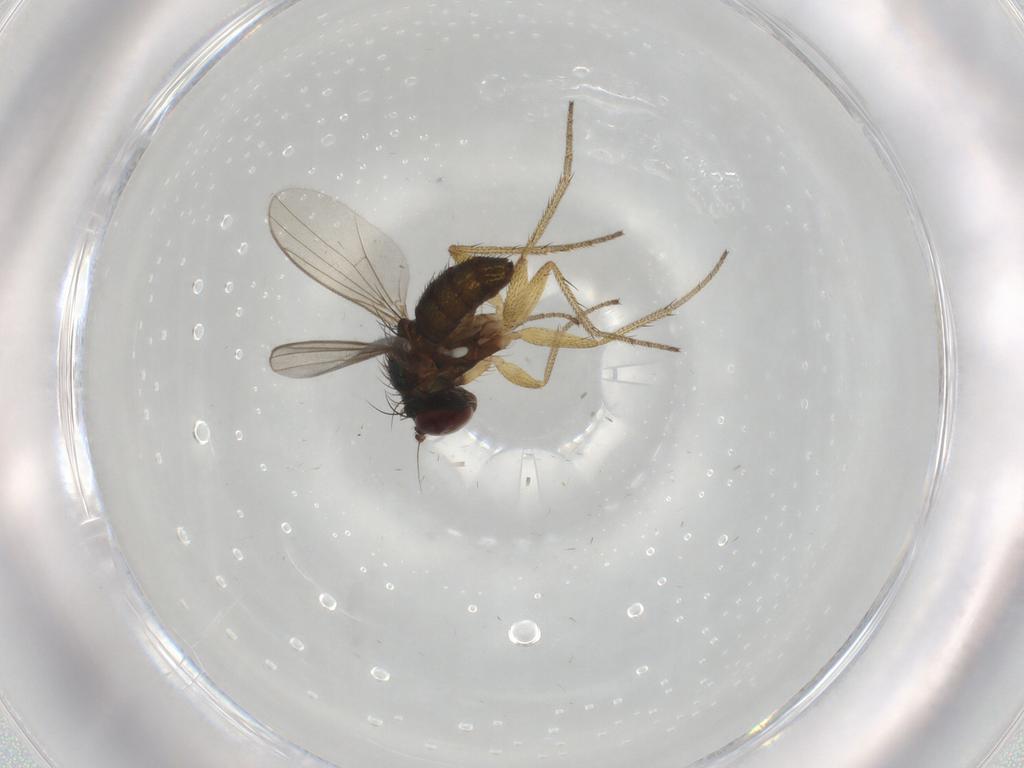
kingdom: Animalia
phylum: Arthropoda
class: Insecta
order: Diptera
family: Dolichopodidae
